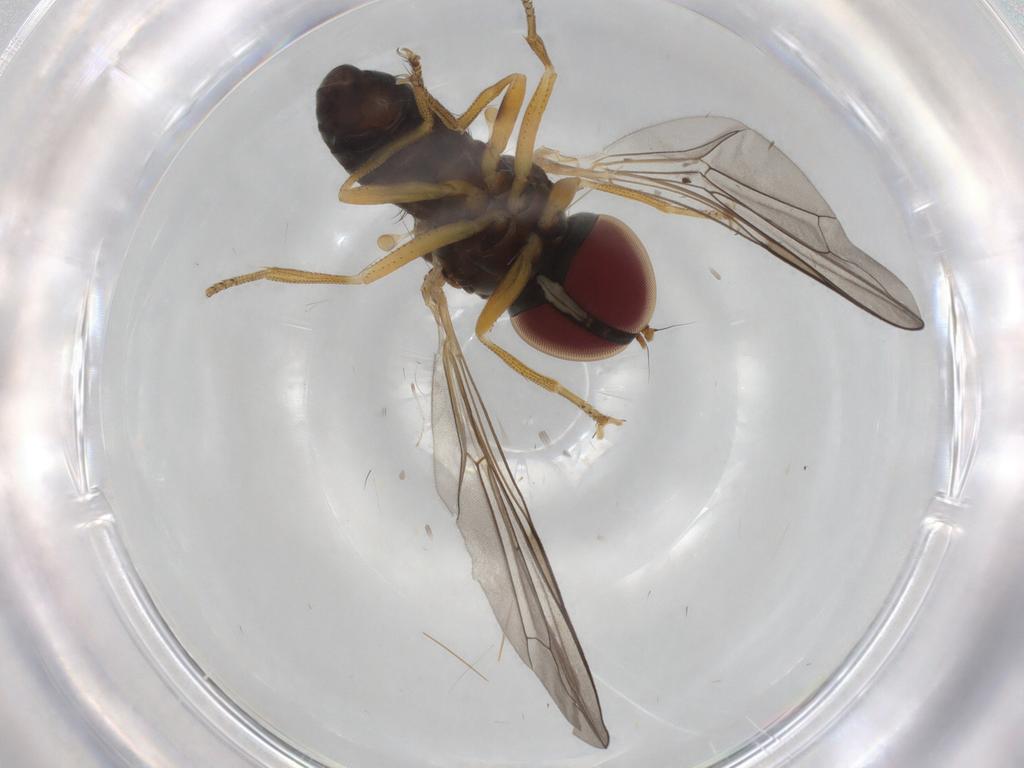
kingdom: Animalia
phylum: Arthropoda
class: Insecta
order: Diptera
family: Pipunculidae
